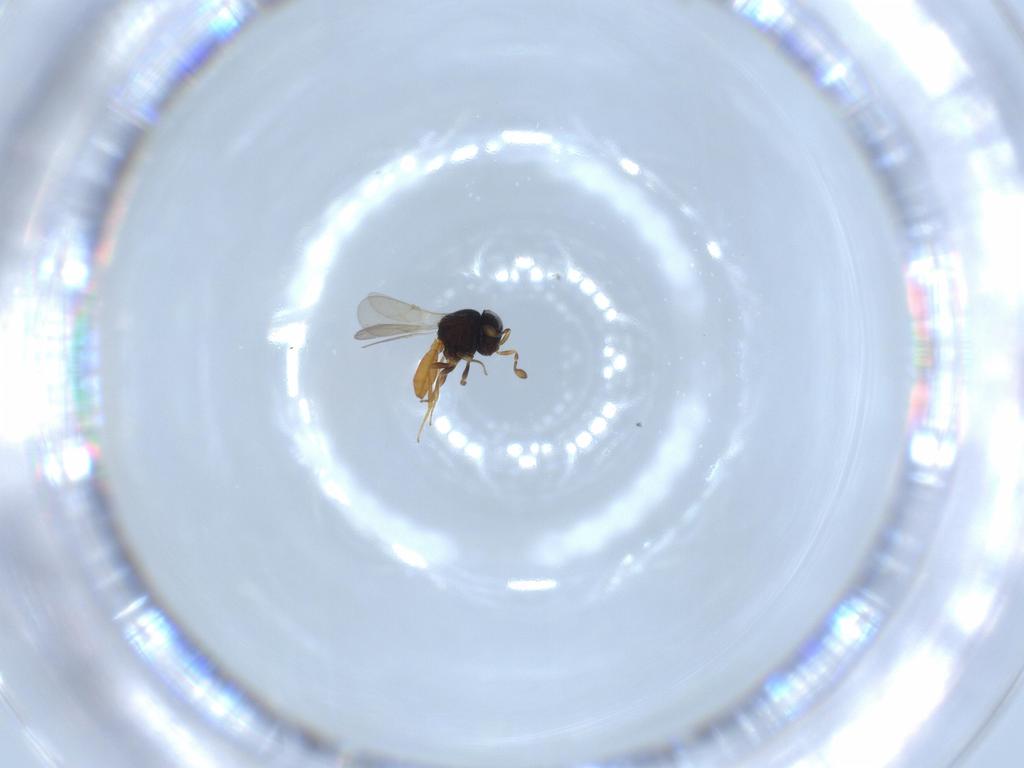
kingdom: Animalia
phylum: Arthropoda
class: Insecta
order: Hymenoptera
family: Scelionidae
